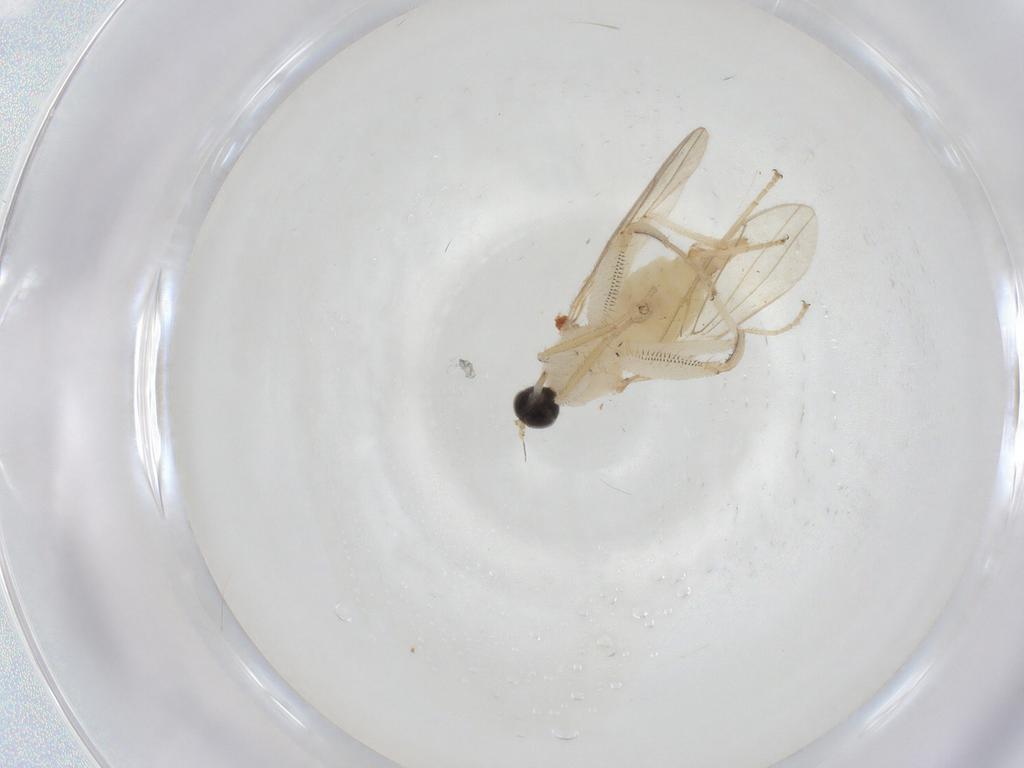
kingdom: Animalia
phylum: Arthropoda
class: Insecta
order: Diptera
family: Hybotidae
